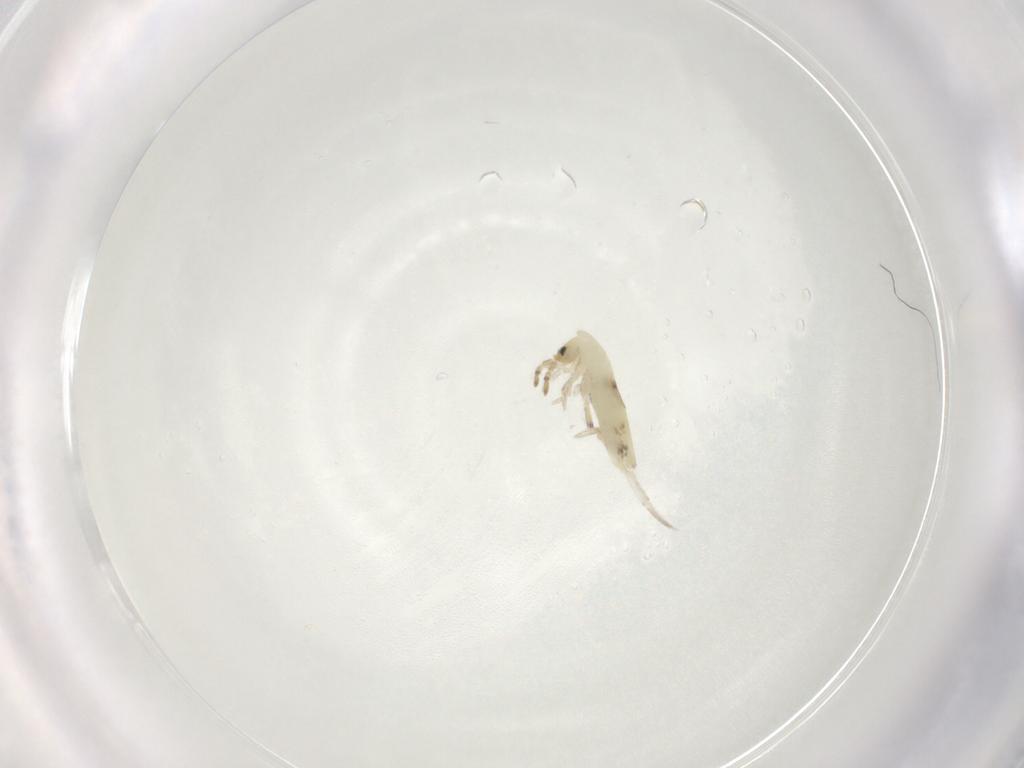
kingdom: Animalia
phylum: Arthropoda
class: Collembola
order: Entomobryomorpha
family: Entomobryidae
